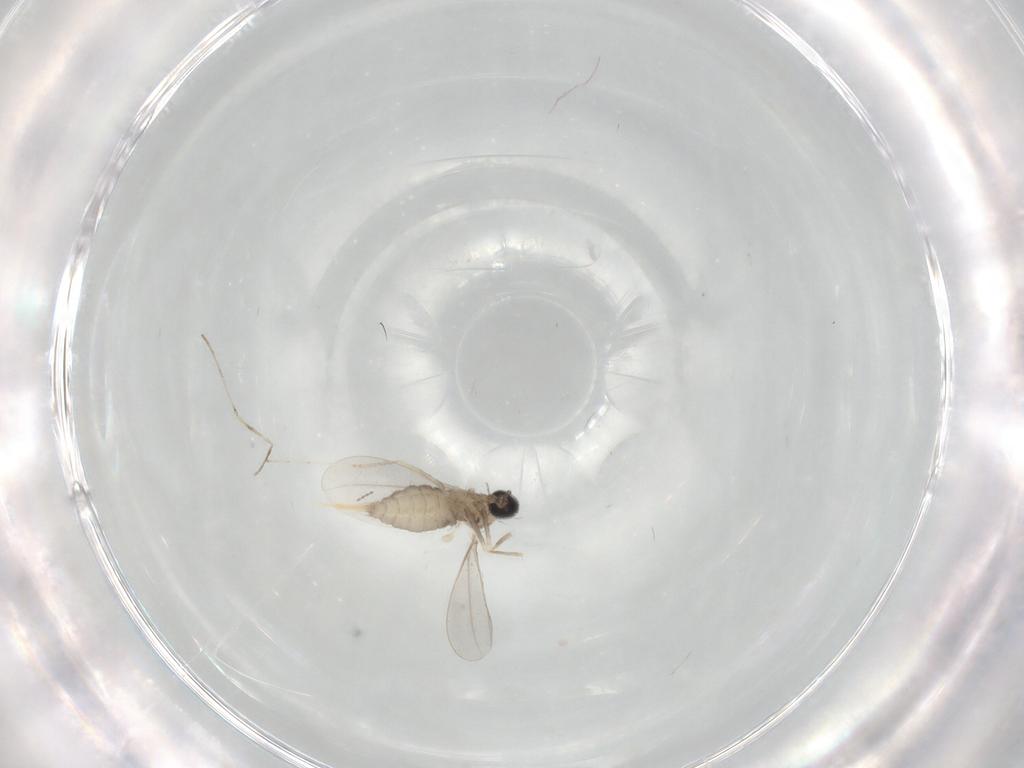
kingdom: Animalia
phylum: Arthropoda
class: Insecta
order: Diptera
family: Cecidomyiidae
